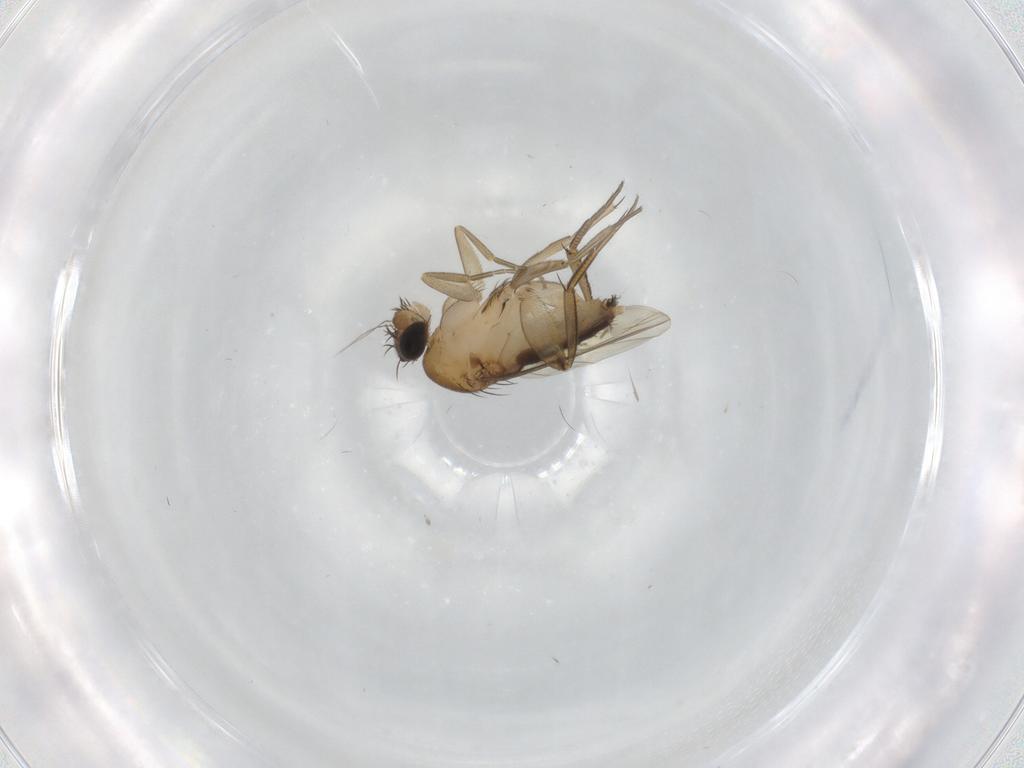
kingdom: Animalia
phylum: Arthropoda
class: Insecta
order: Diptera
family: Phoridae
